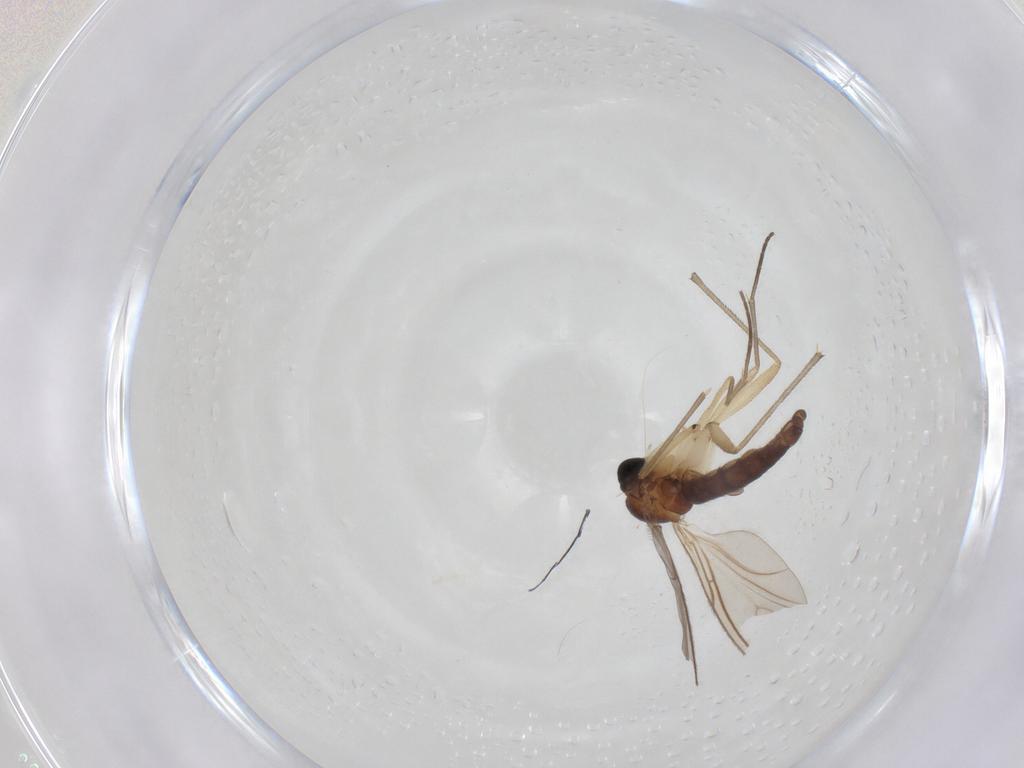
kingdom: Animalia
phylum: Arthropoda
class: Insecta
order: Diptera
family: Sciaridae
